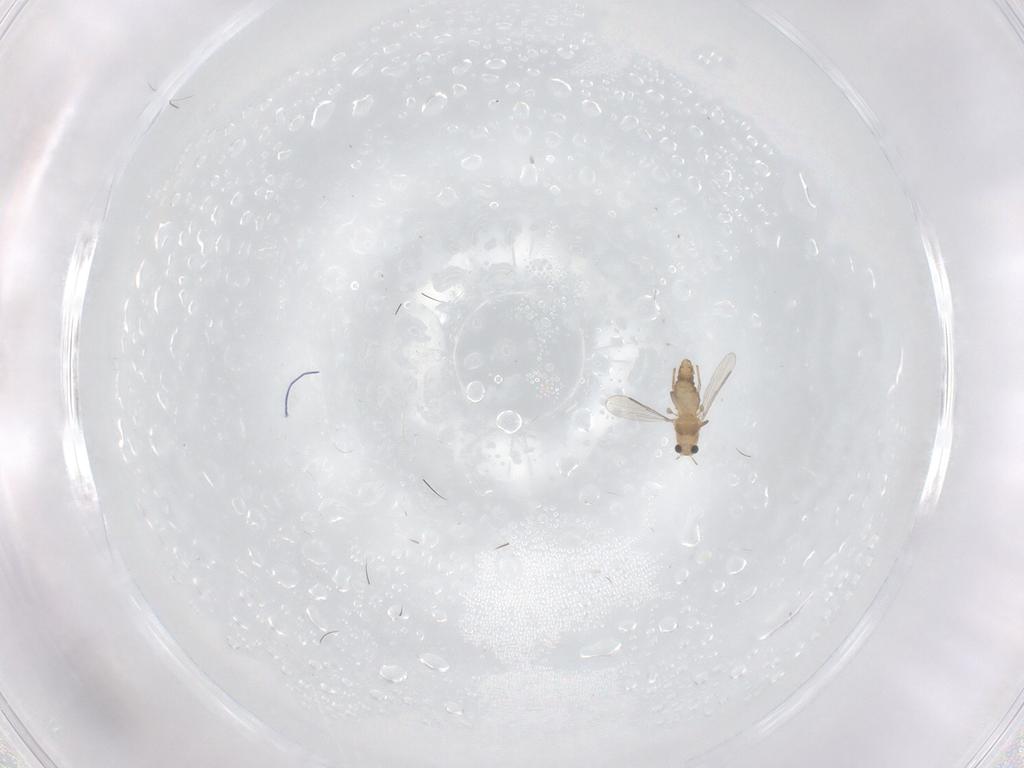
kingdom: Animalia
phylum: Arthropoda
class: Insecta
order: Diptera
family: Chironomidae
